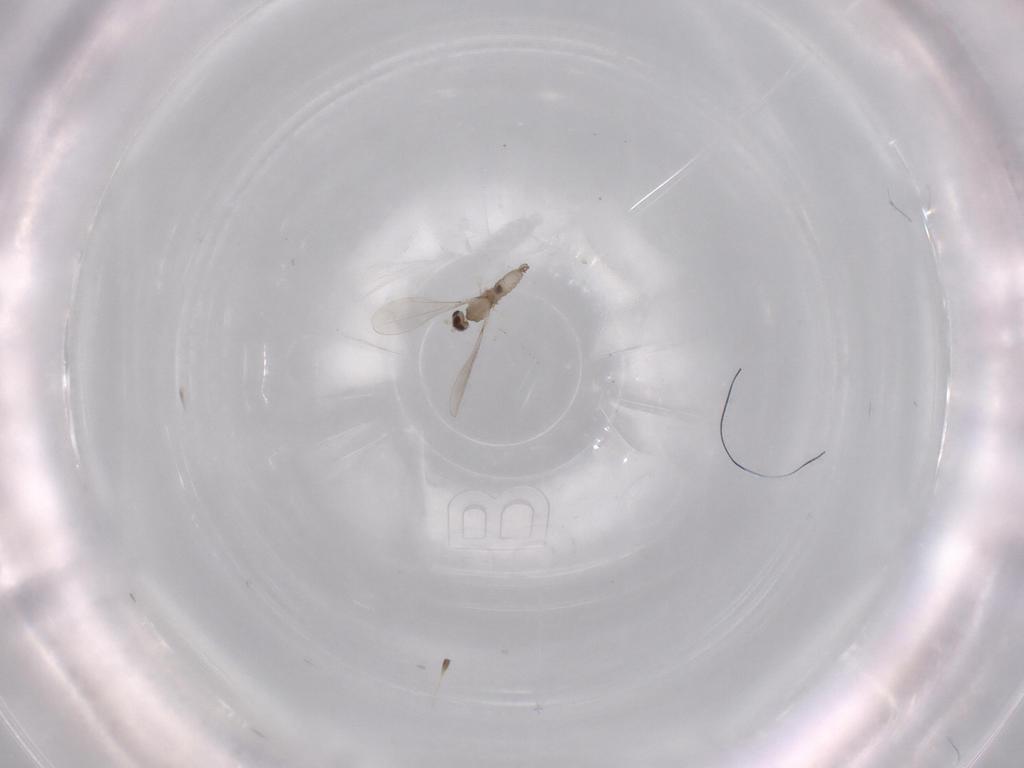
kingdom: Animalia
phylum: Arthropoda
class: Insecta
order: Diptera
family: Cecidomyiidae
